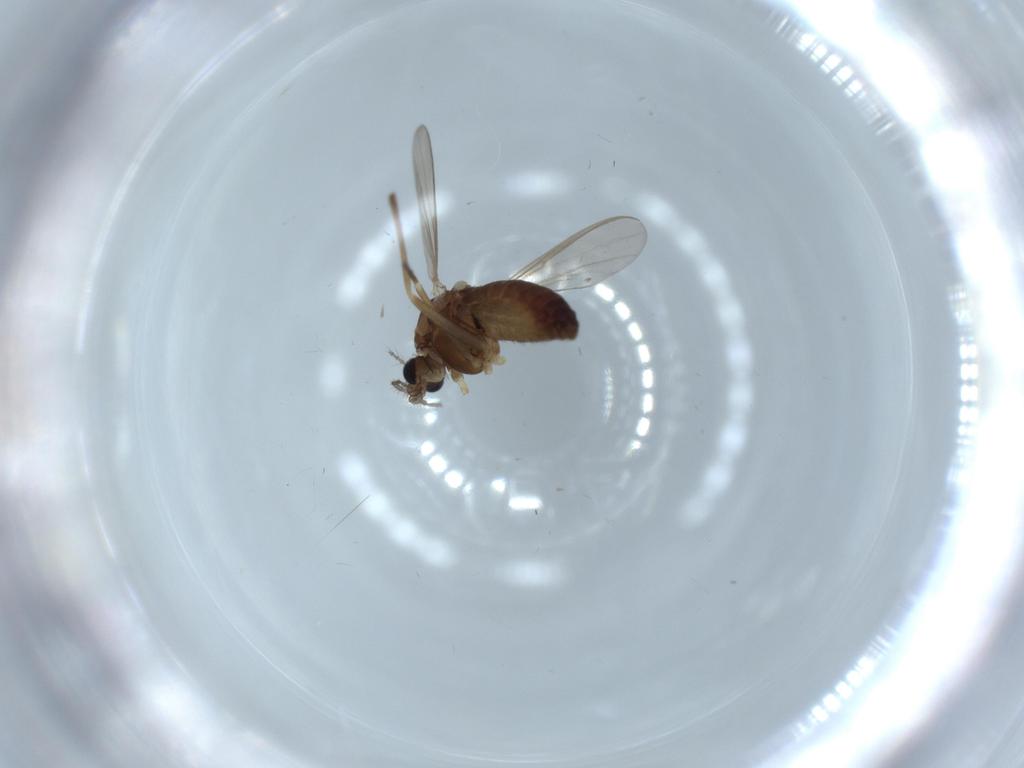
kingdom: Animalia
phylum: Arthropoda
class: Insecta
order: Diptera
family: Chironomidae
